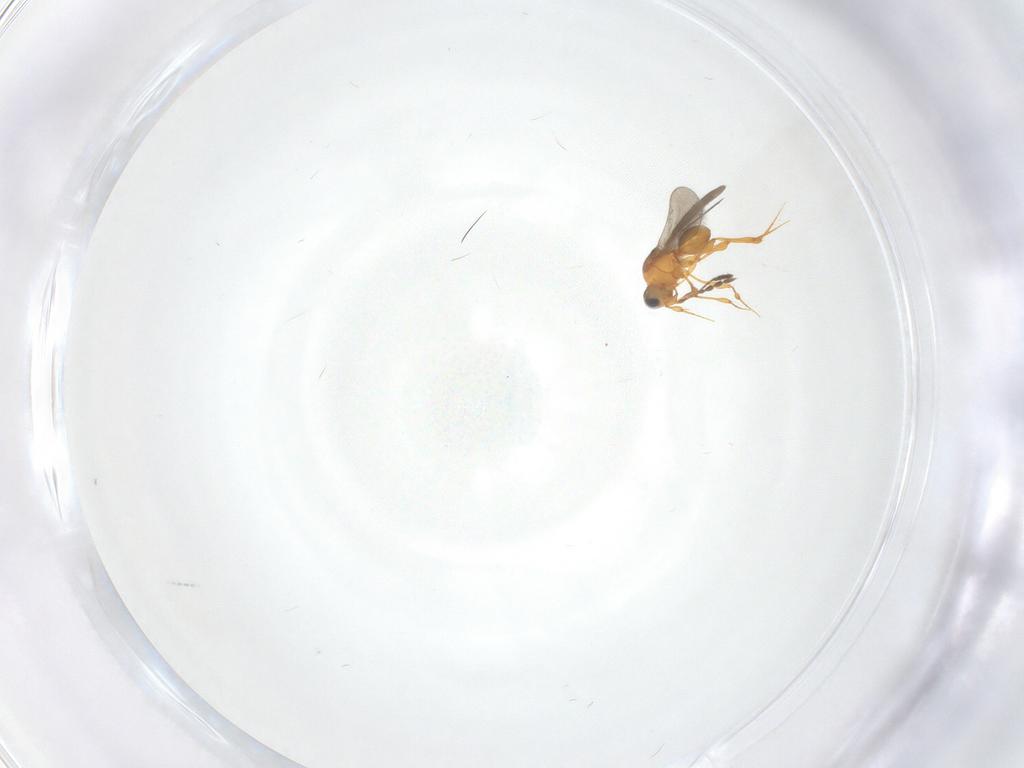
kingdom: Animalia
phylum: Arthropoda
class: Insecta
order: Hymenoptera
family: Platygastridae
